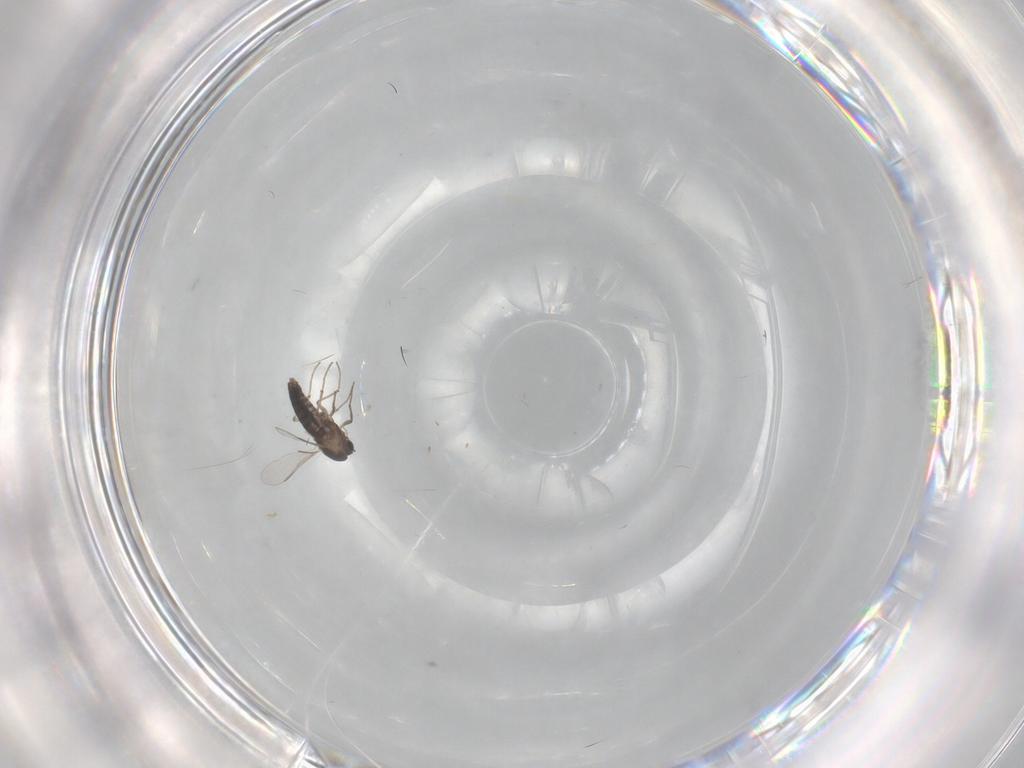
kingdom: Animalia
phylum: Arthropoda
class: Insecta
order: Diptera
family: Chironomidae
